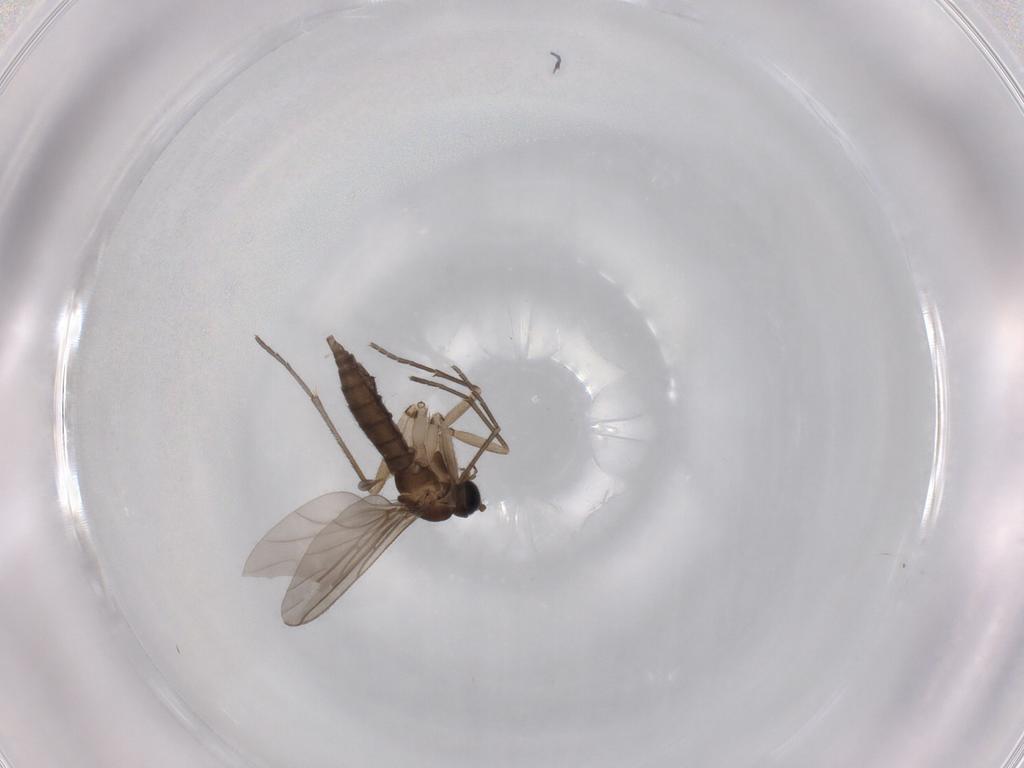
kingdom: Animalia
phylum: Arthropoda
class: Insecta
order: Diptera
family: Sciaridae
